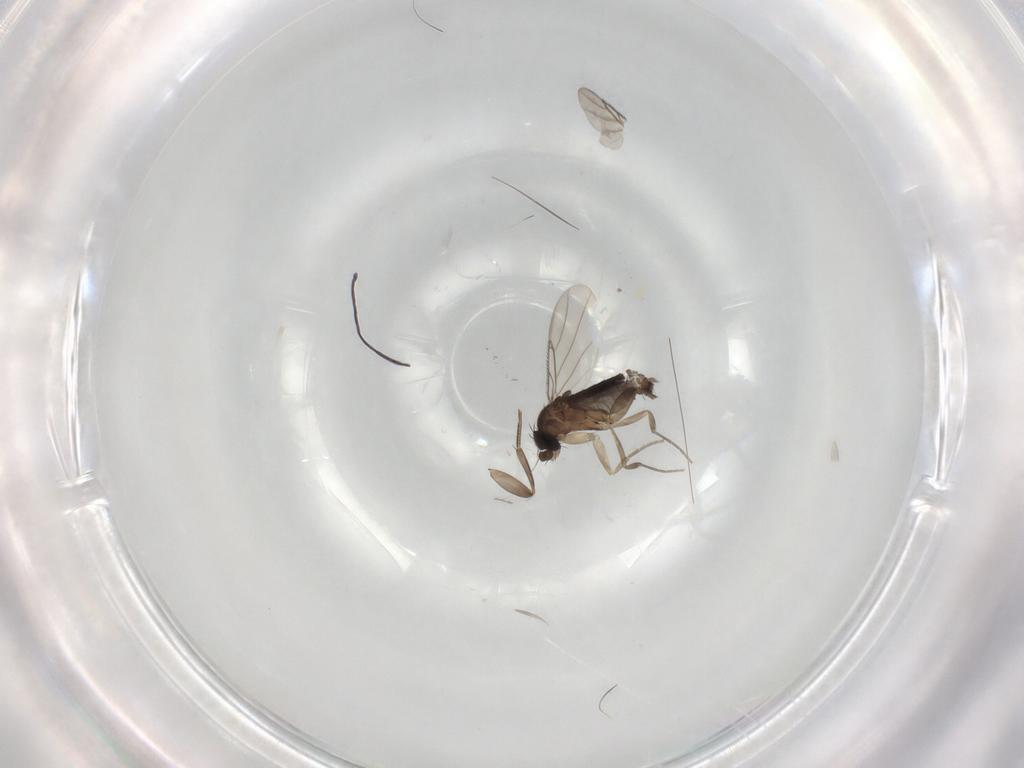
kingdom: Animalia
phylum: Arthropoda
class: Insecta
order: Diptera
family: Phoridae
